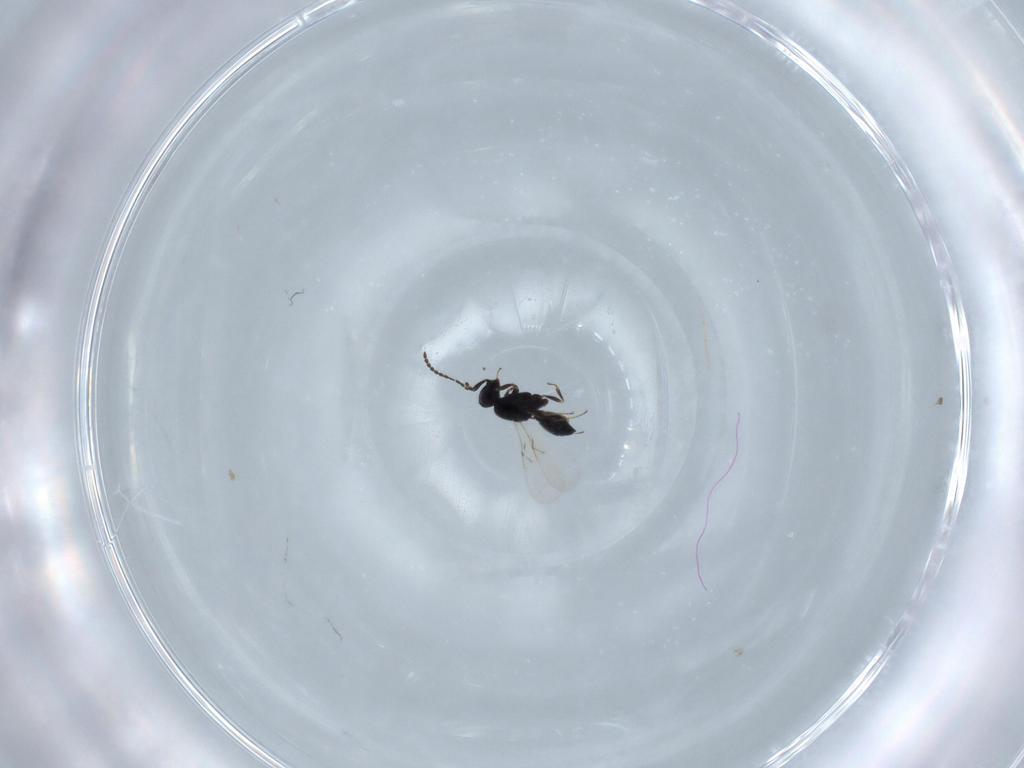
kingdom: Animalia
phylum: Arthropoda
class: Insecta
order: Hymenoptera
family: Scelionidae
